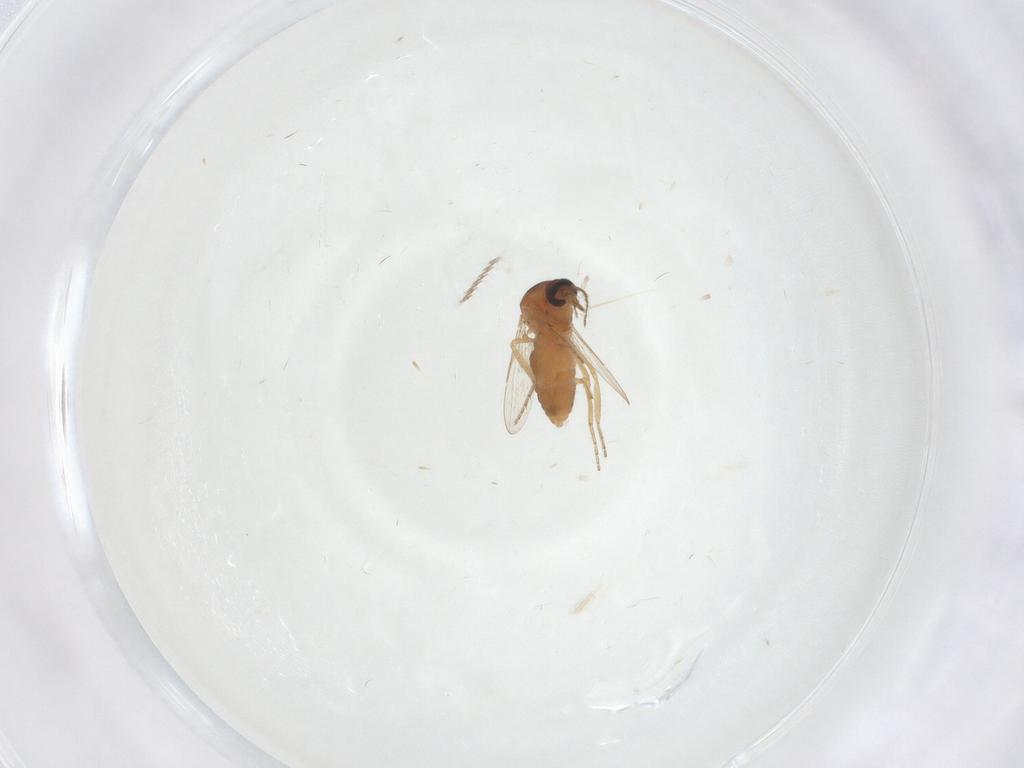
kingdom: Animalia
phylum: Arthropoda
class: Insecta
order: Diptera
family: Ceratopogonidae
